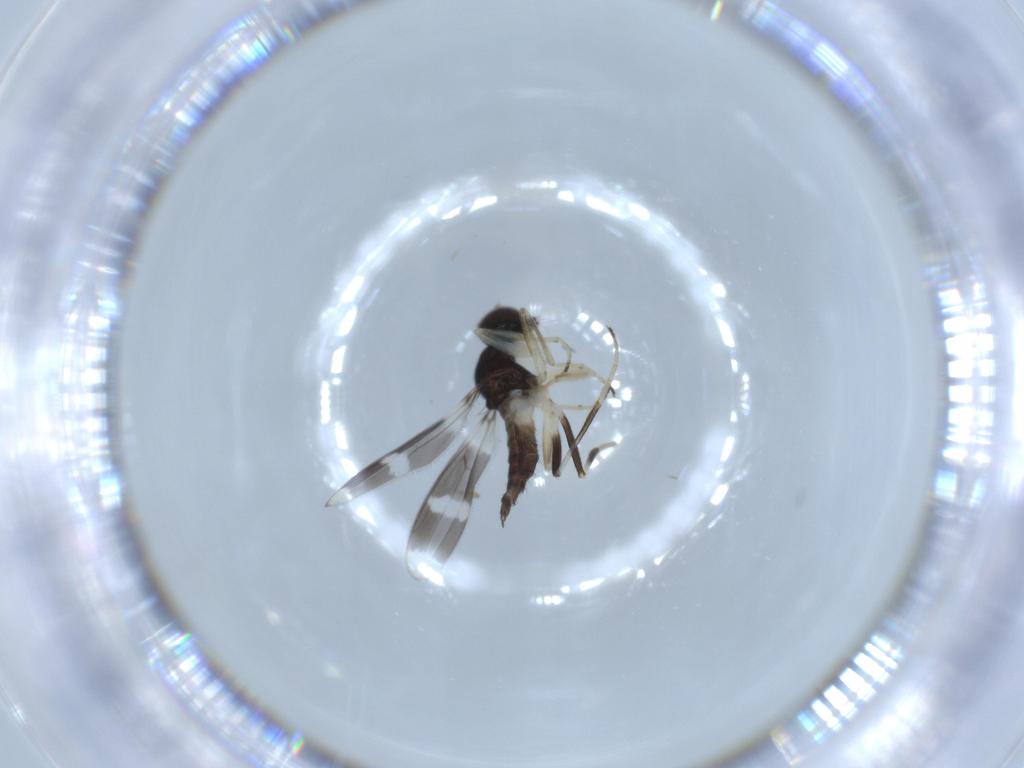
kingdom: Animalia
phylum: Arthropoda
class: Insecta
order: Diptera
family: Hybotidae
